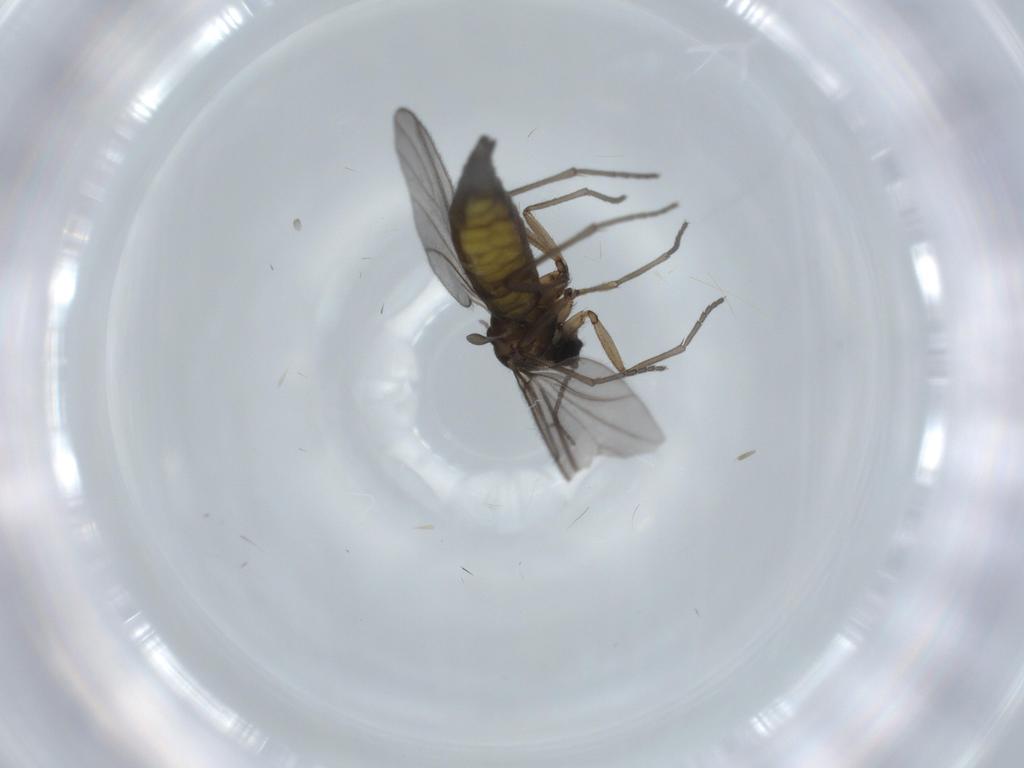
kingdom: Animalia
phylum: Arthropoda
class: Insecta
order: Diptera
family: Sciaridae
